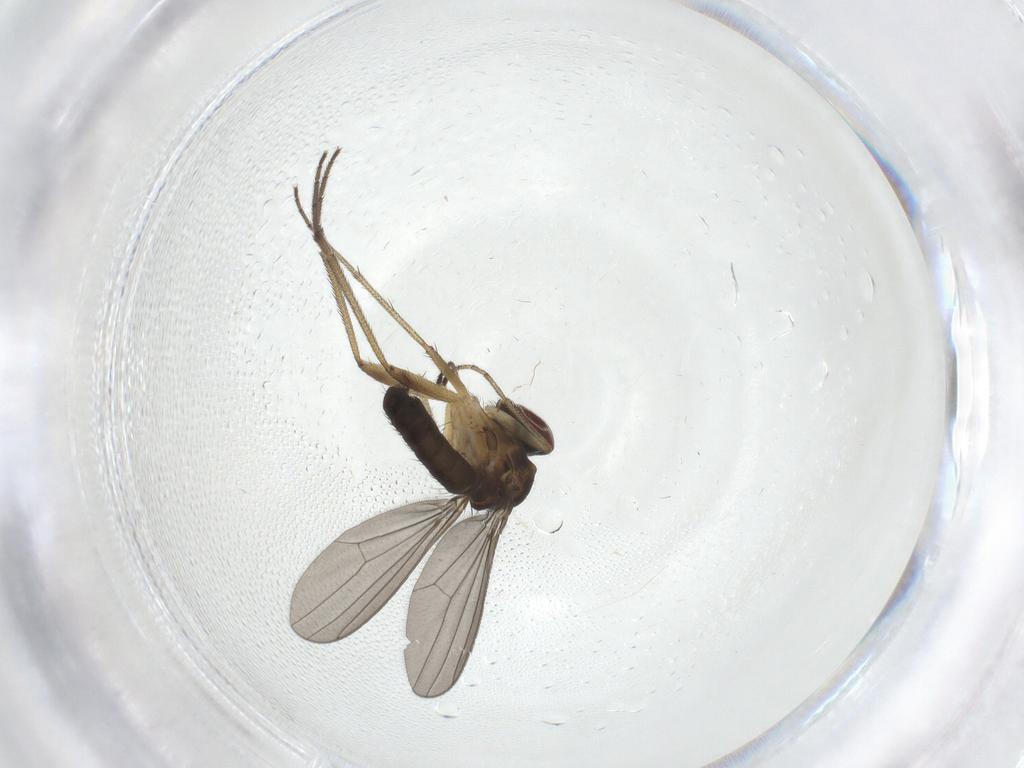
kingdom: Animalia
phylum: Arthropoda
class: Insecta
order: Diptera
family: Dolichopodidae
